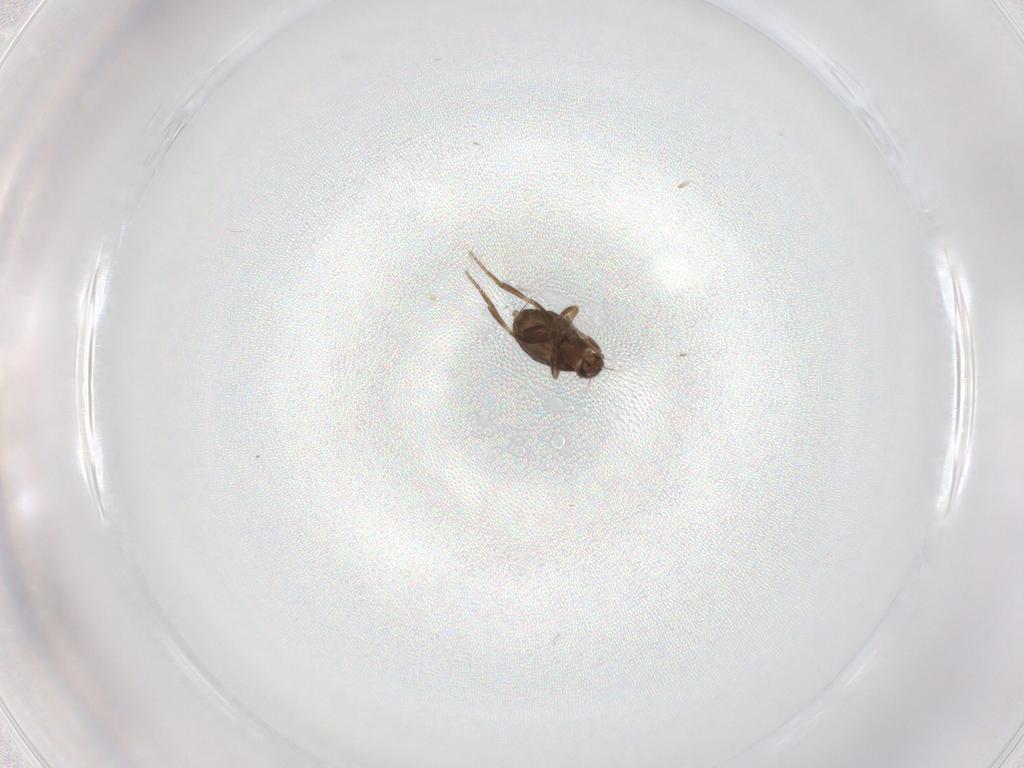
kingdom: Animalia
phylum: Arthropoda
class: Insecta
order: Diptera
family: Phoridae
